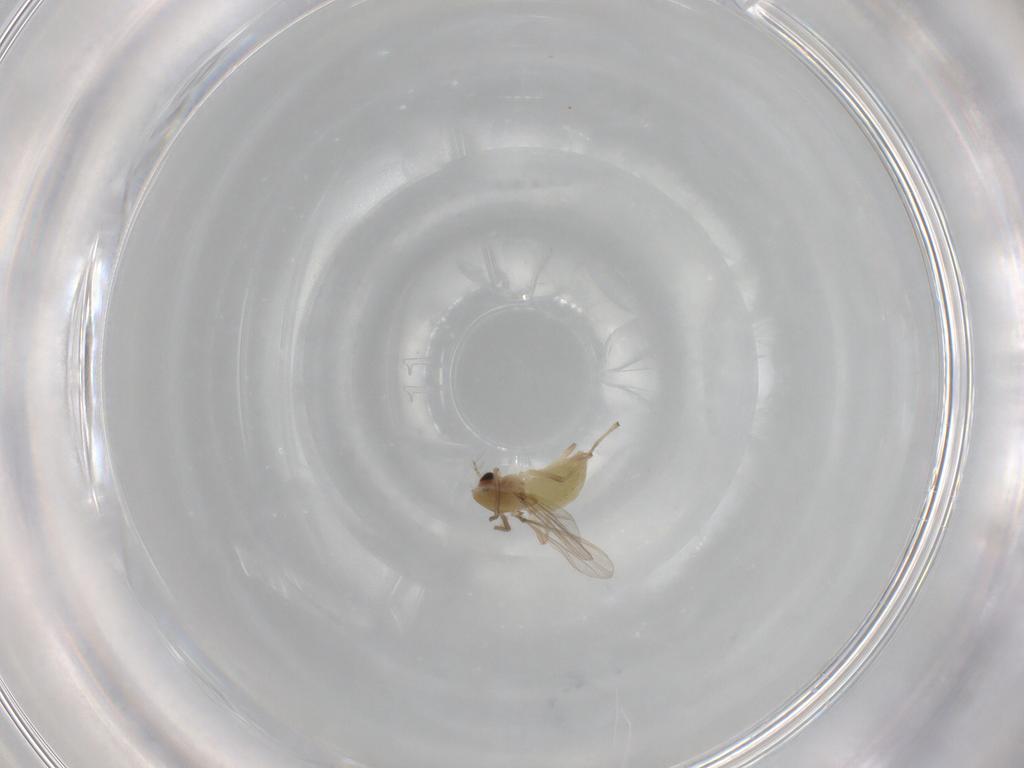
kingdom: Animalia
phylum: Arthropoda
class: Insecta
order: Diptera
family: Chironomidae
